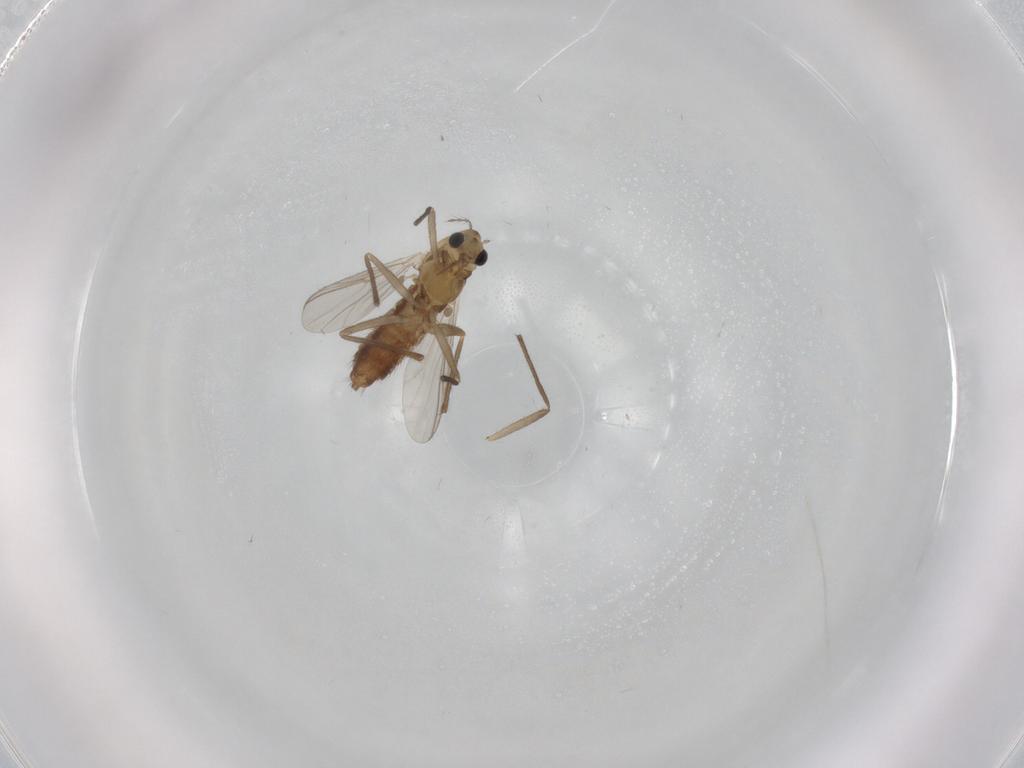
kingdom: Animalia
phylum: Arthropoda
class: Insecta
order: Diptera
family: Chironomidae
